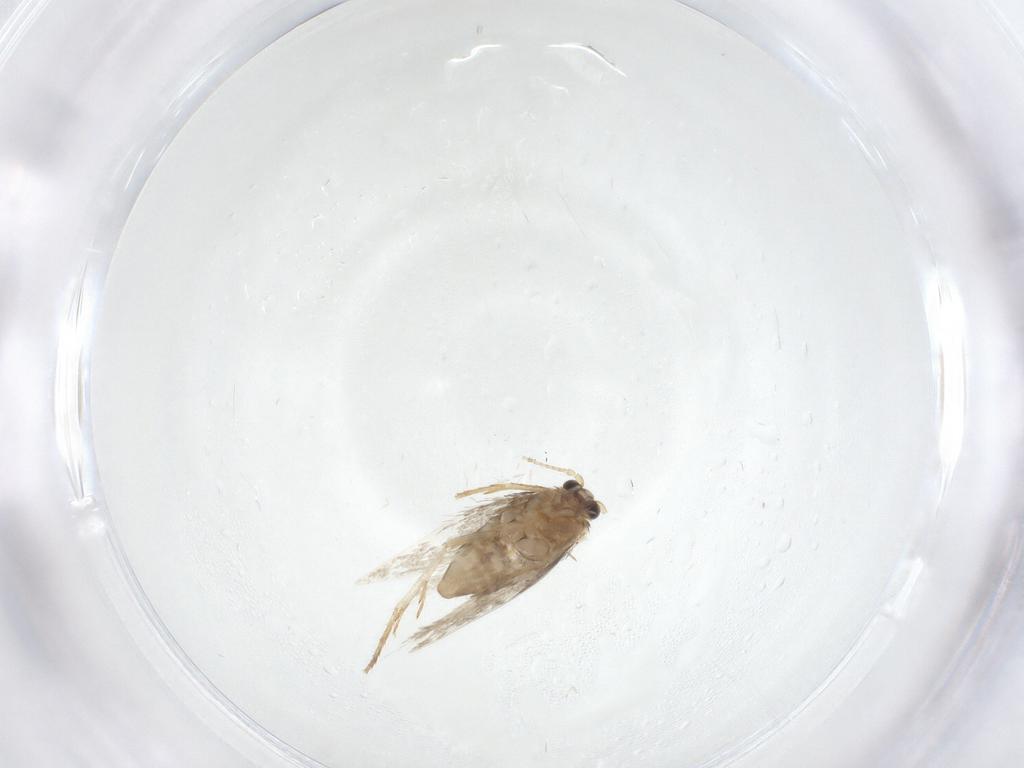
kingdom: Animalia
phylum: Arthropoda
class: Insecta
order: Lepidoptera
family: Nepticulidae
